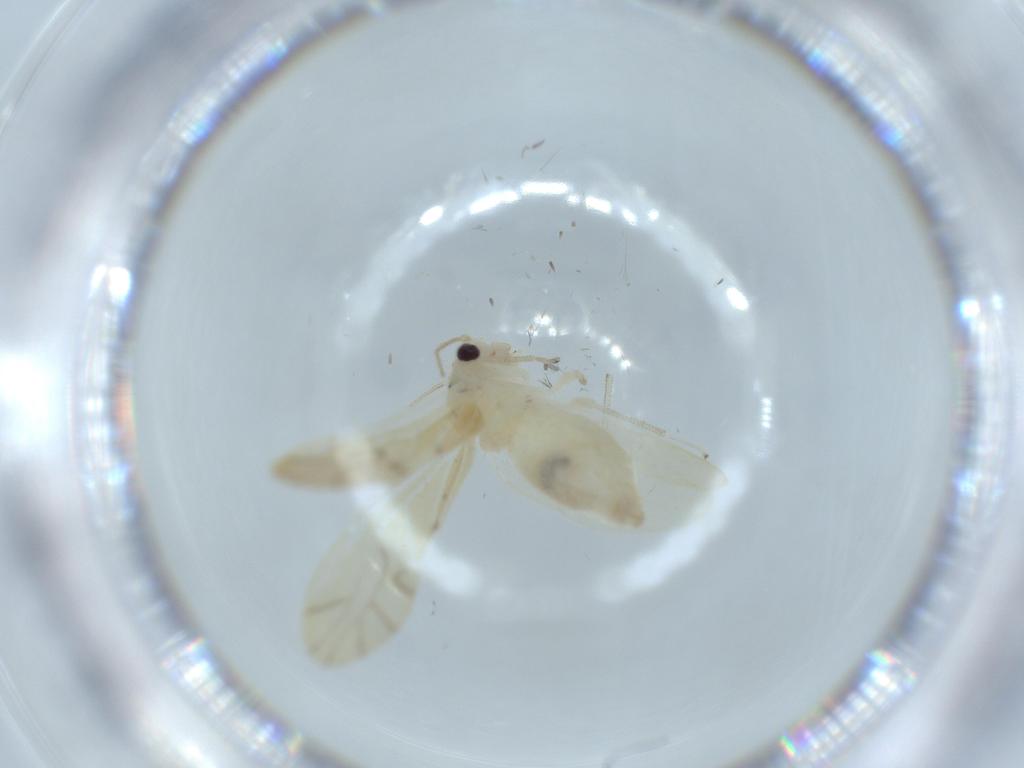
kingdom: Animalia
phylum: Arthropoda
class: Insecta
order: Psocodea
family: Caeciliusidae
